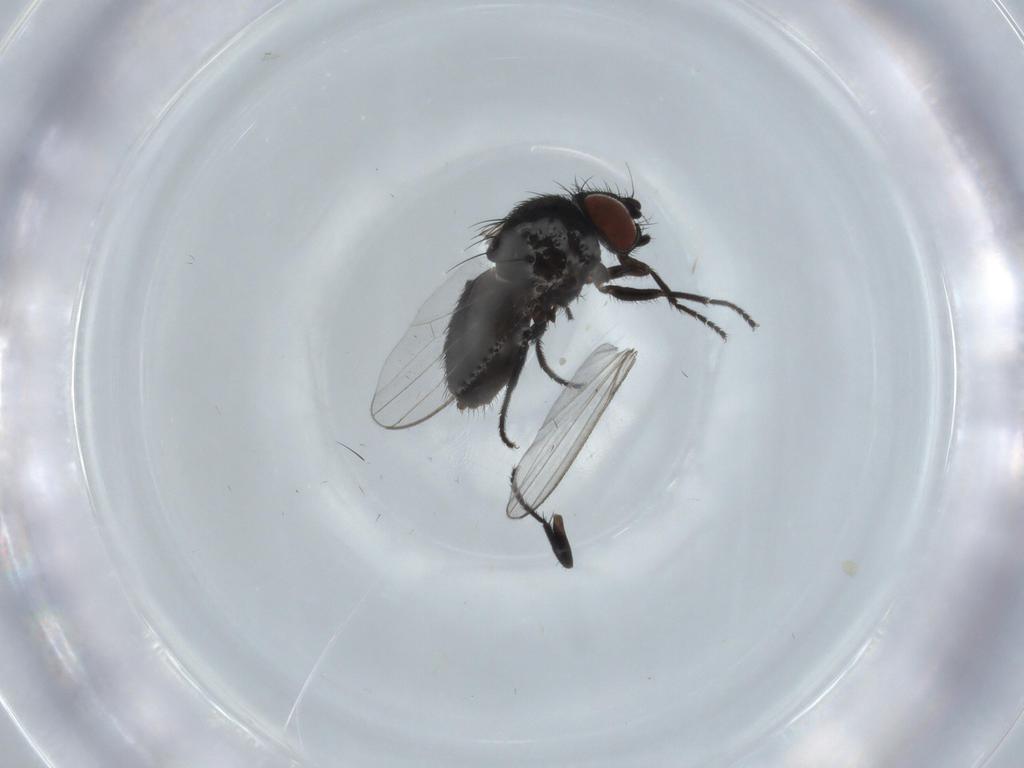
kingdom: Animalia
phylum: Arthropoda
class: Insecta
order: Diptera
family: Milichiidae
